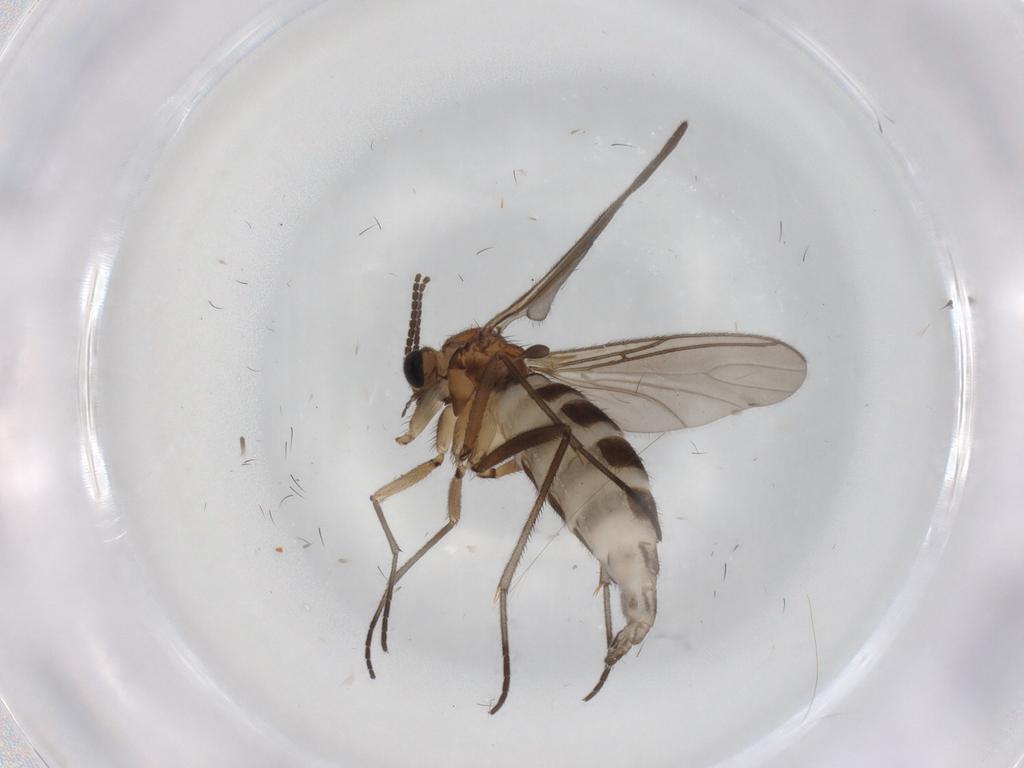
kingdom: Animalia
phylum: Arthropoda
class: Insecta
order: Diptera
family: Sciaridae
